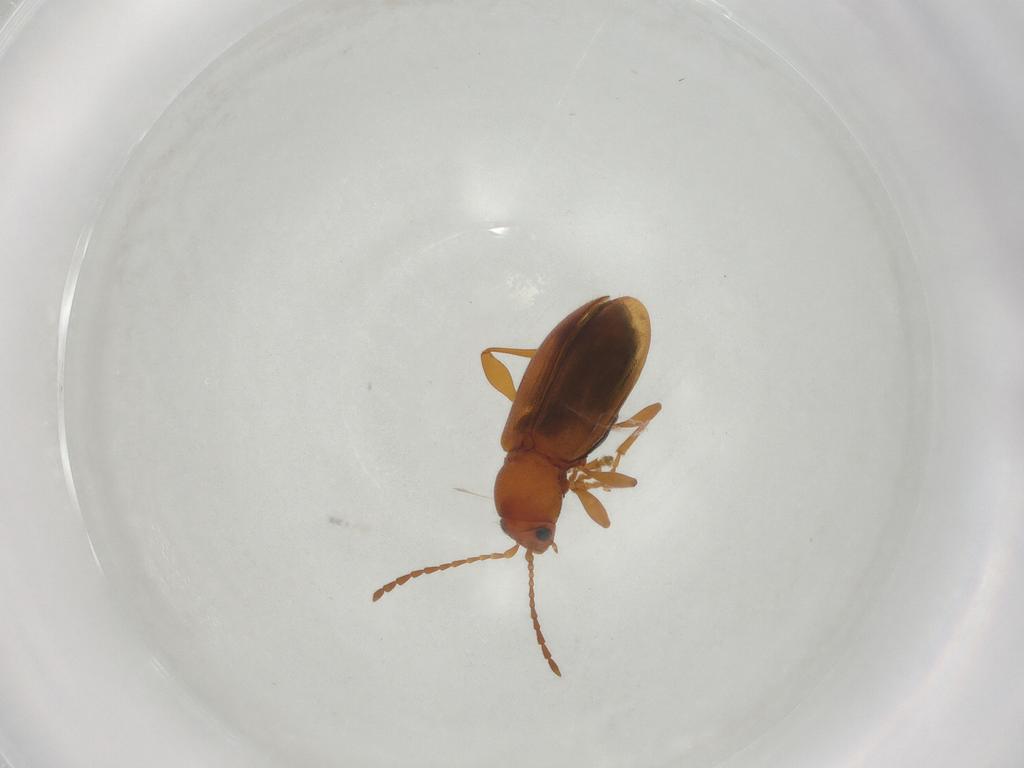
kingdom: Animalia
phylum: Arthropoda
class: Insecta
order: Coleoptera
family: Chrysomelidae
